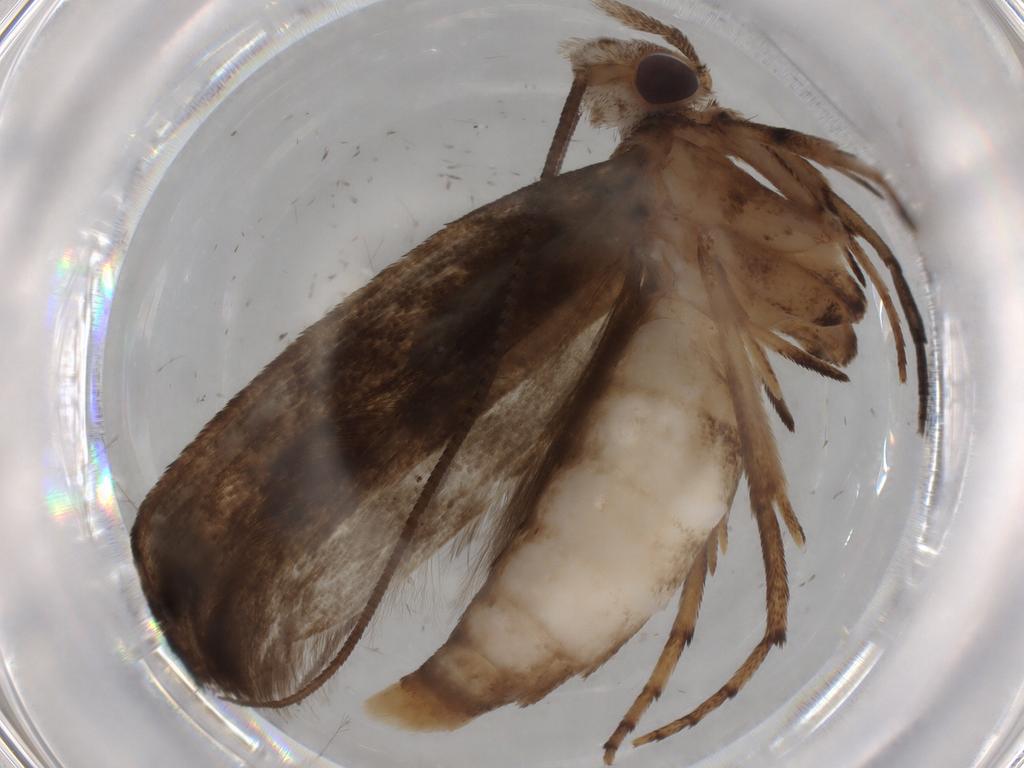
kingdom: Animalia
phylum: Arthropoda
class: Insecta
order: Lepidoptera
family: Yponomeutidae
